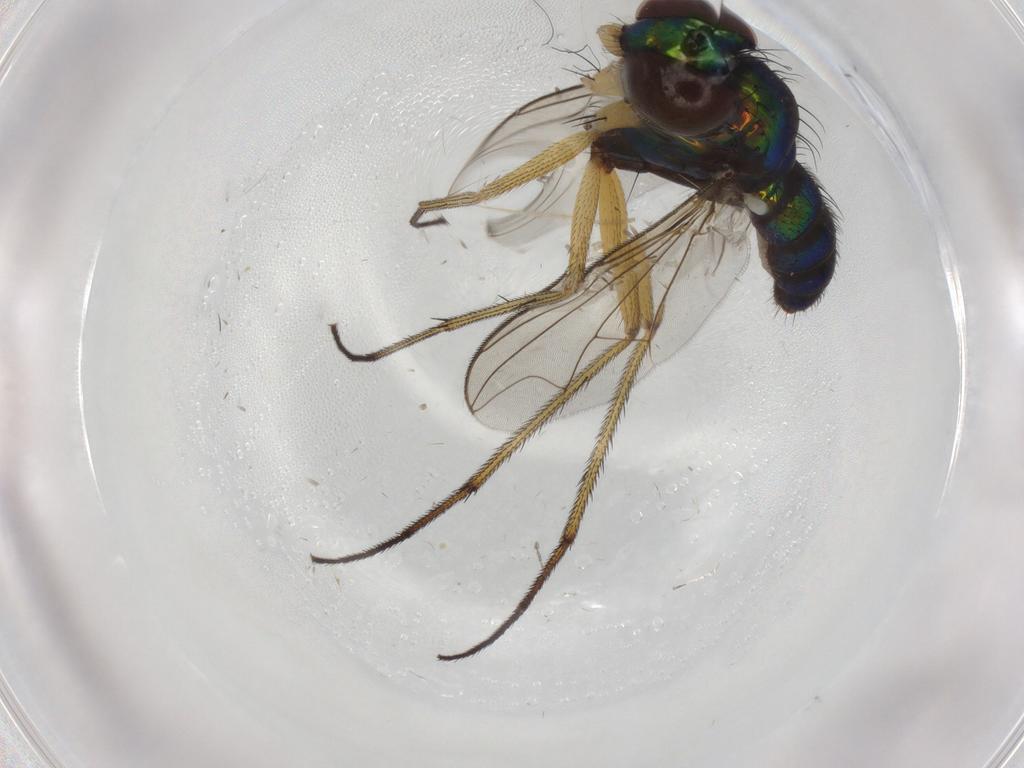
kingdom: Animalia
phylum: Arthropoda
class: Insecta
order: Diptera
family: Dolichopodidae
